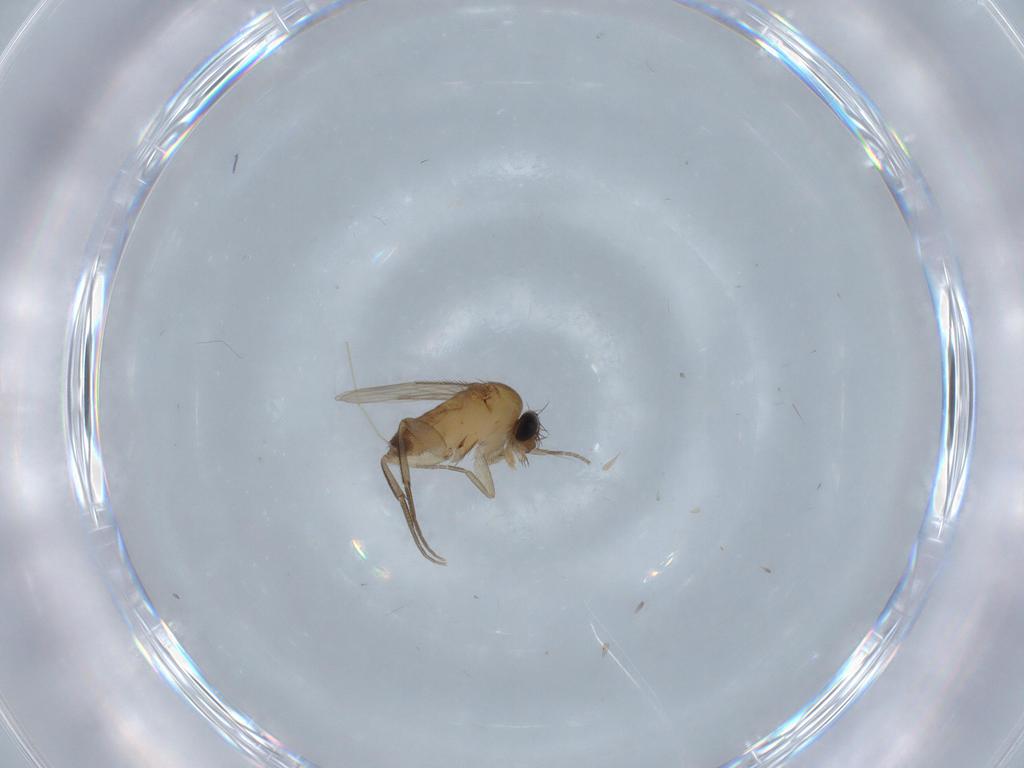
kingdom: Animalia
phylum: Arthropoda
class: Insecta
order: Diptera
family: Phoridae
